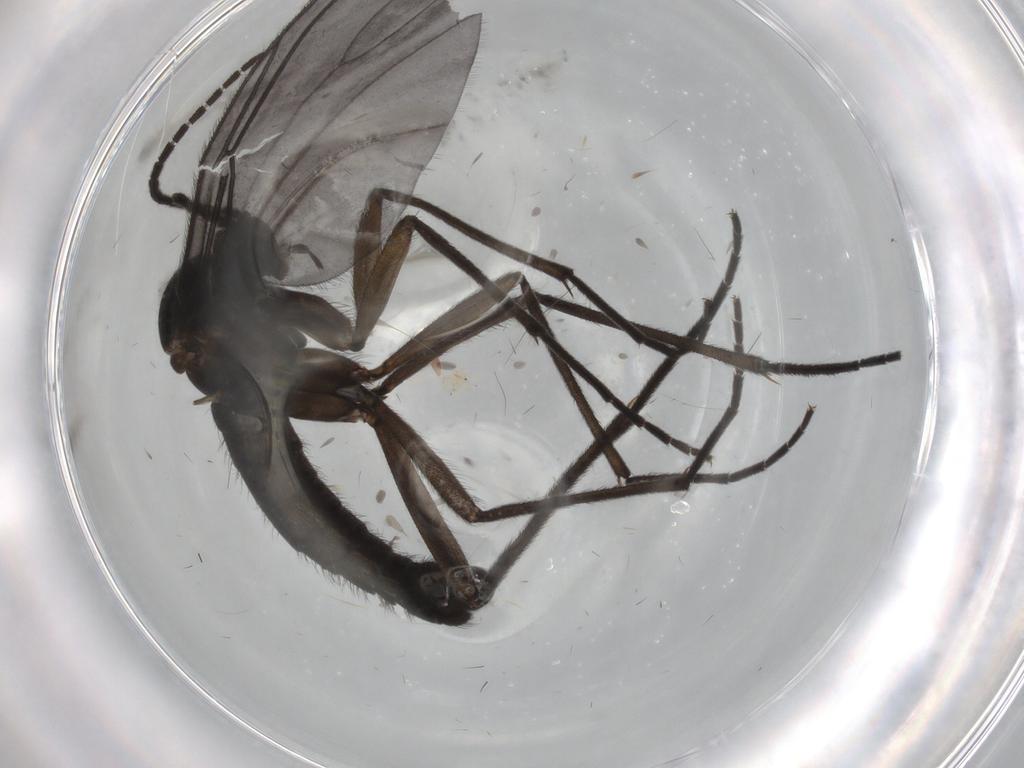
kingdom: Animalia
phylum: Arthropoda
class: Insecta
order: Diptera
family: Sciaridae
